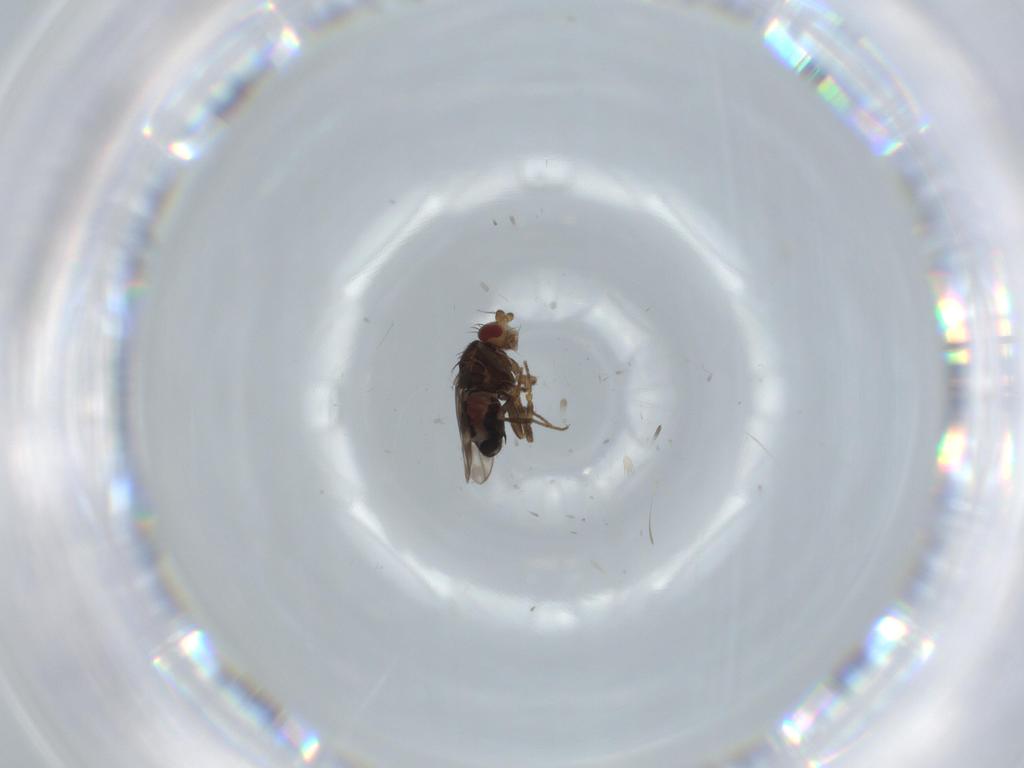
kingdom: Animalia
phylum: Arthropoda
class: Insecta
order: Diptera
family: Sphaeroceridae
